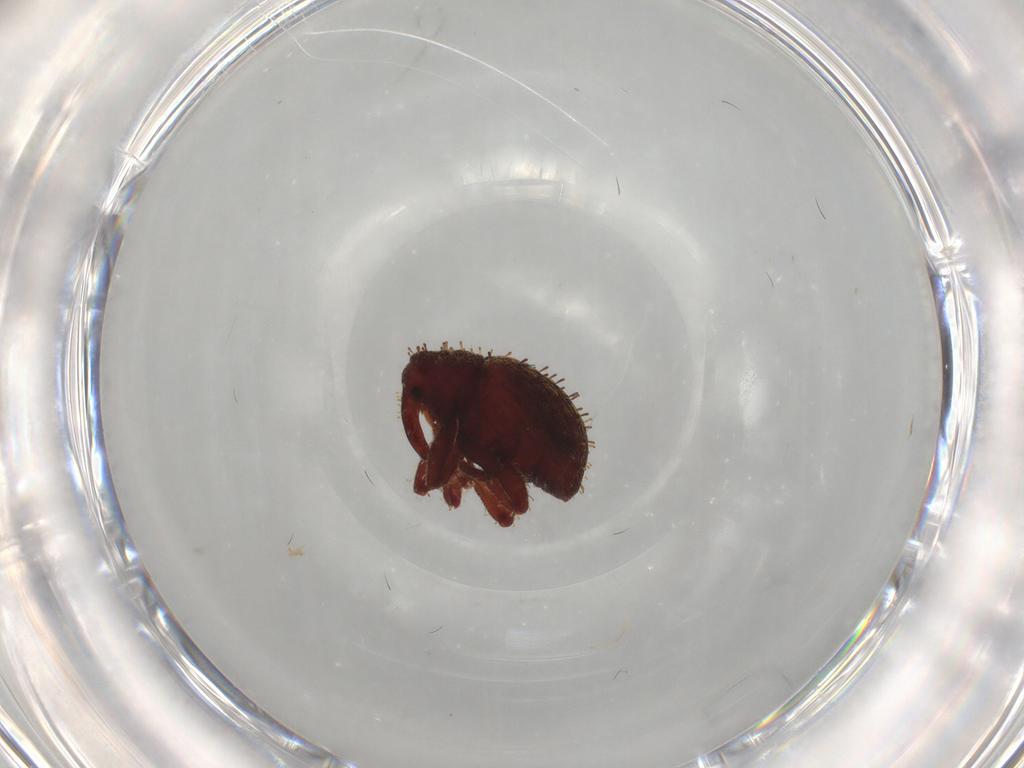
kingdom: Animalia
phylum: Arthropoda
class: Insecta
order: Coleoptera
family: Curculionidae
